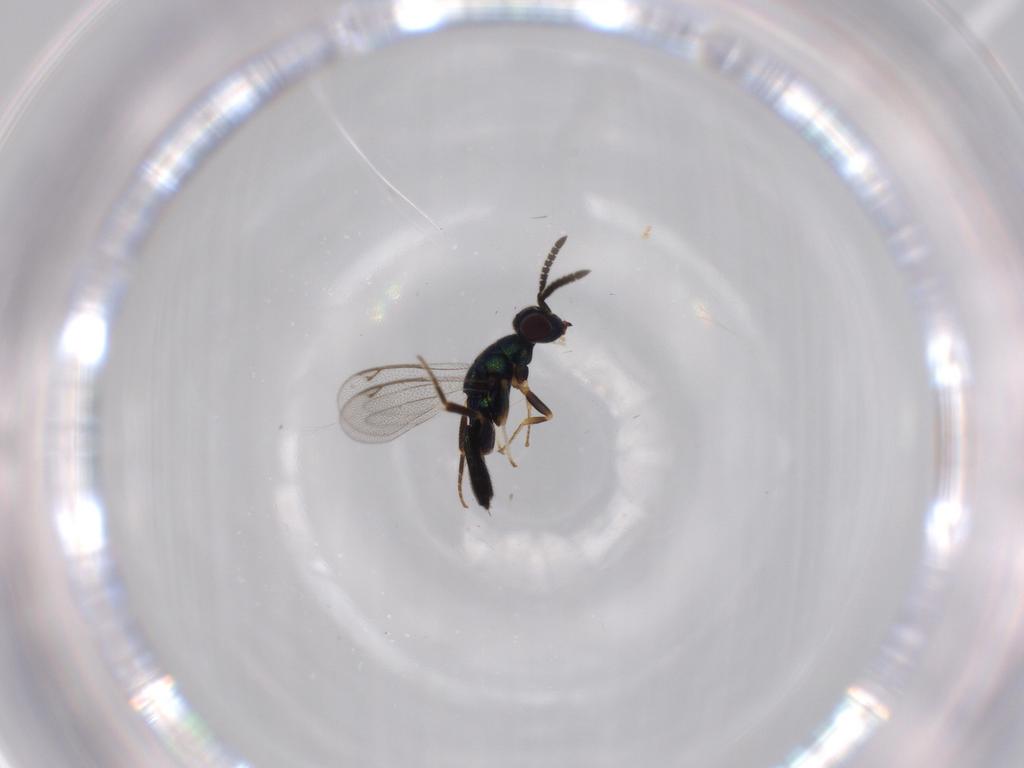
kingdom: Animalia
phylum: Arthropoda
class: Insecta
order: Hymenoptera
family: Cleonyminae
